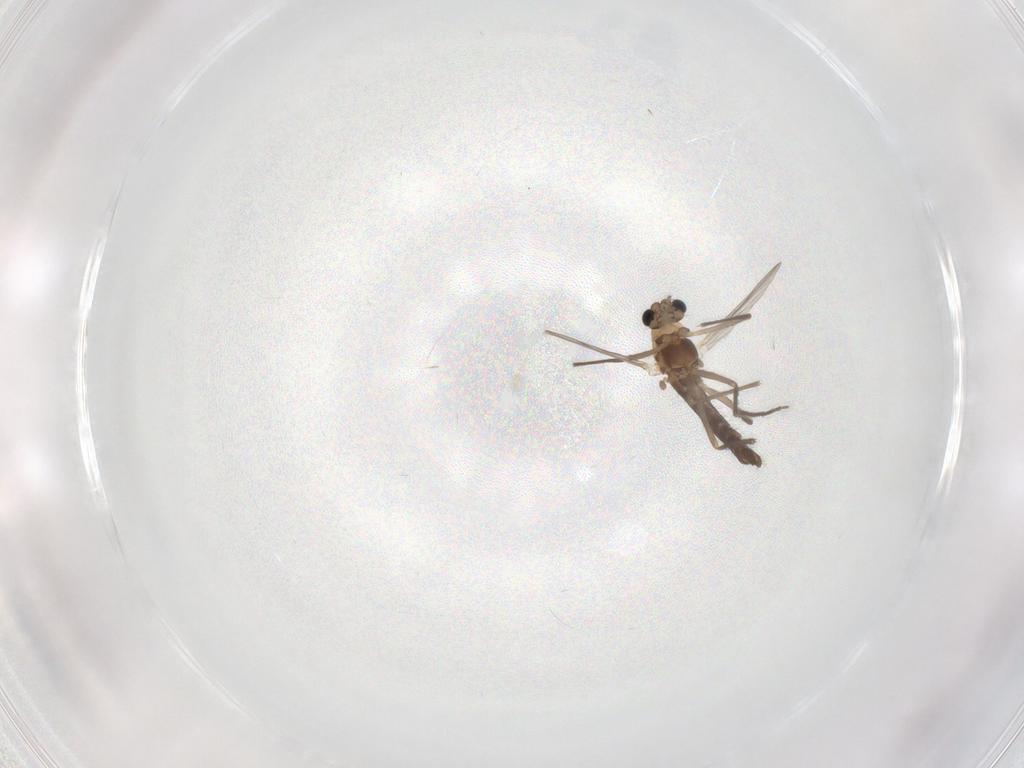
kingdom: Animalia
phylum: Arthropoda
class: Insecta
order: Diptera
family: Chironomidae
